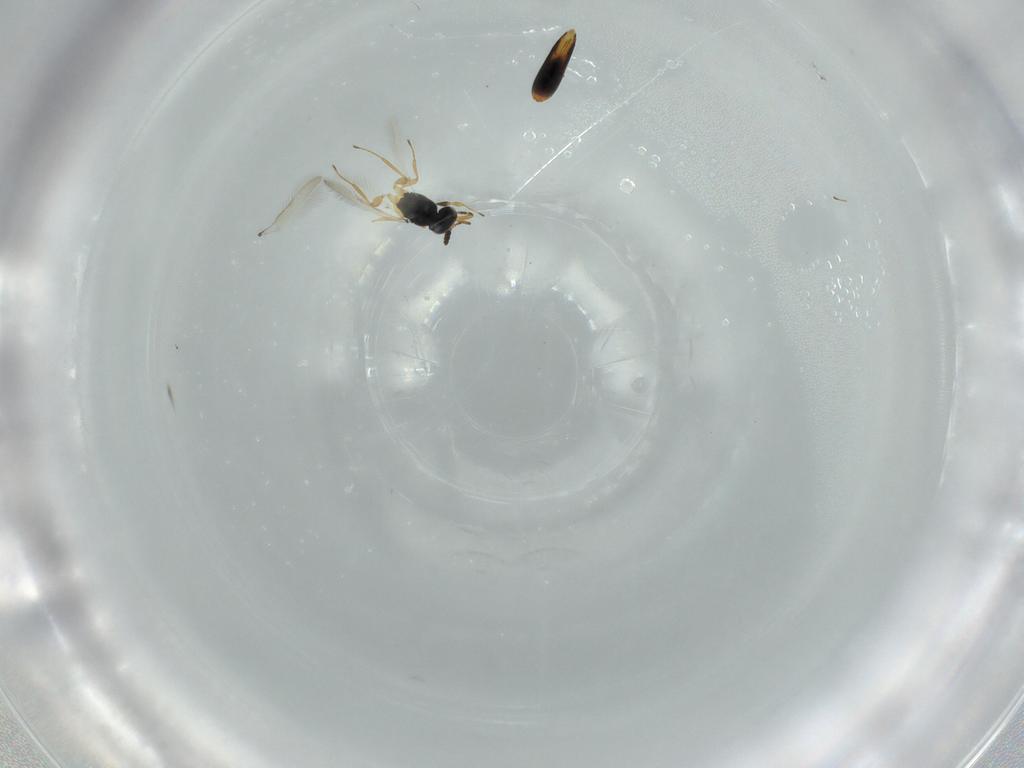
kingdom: Animalia
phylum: Arthropoda
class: Insecta
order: Hymenoptera
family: Scelionidae
